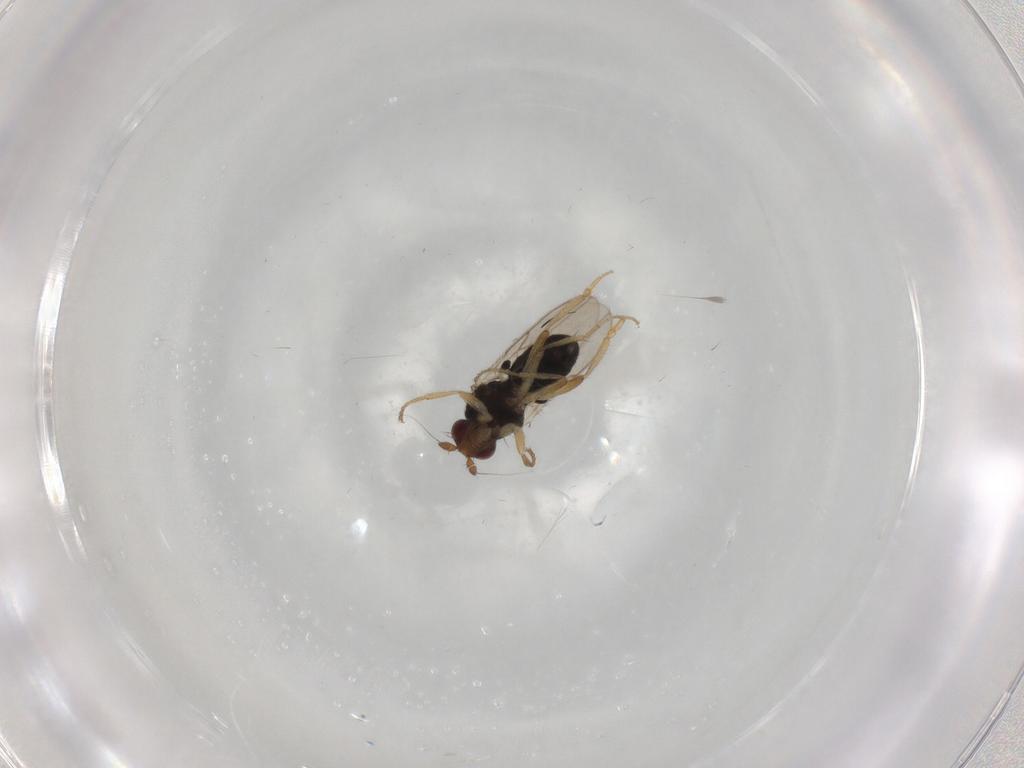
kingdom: Animalia
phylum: Arthropoda
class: Insecta
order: Diptera
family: Sphaeroceridae
